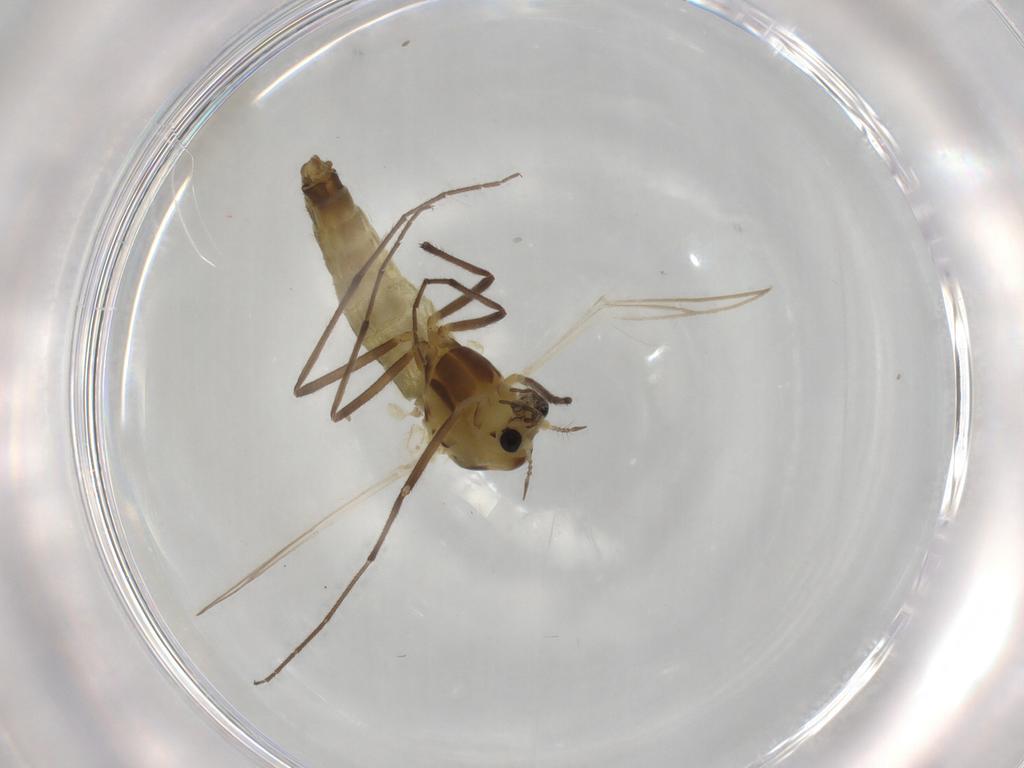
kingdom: Animalia
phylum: Arthropoda
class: Insecta
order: Diptera
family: Chironomidae
